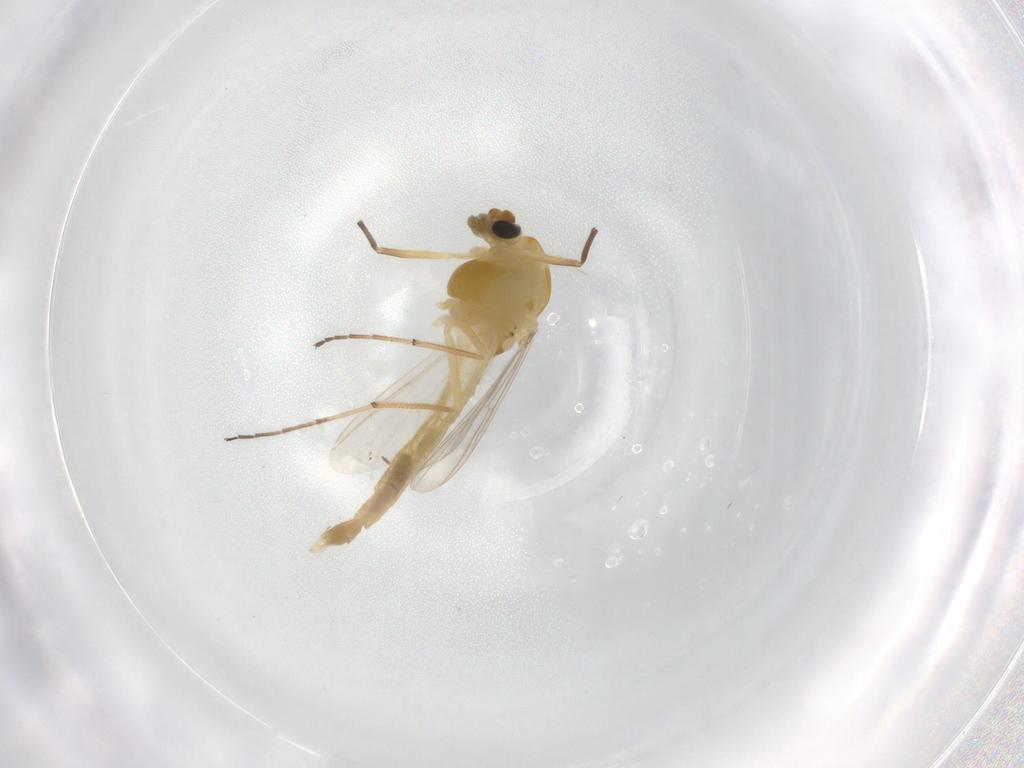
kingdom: Animalia
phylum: Arthropoda
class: Insecta
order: Diptera
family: Chironomidae
